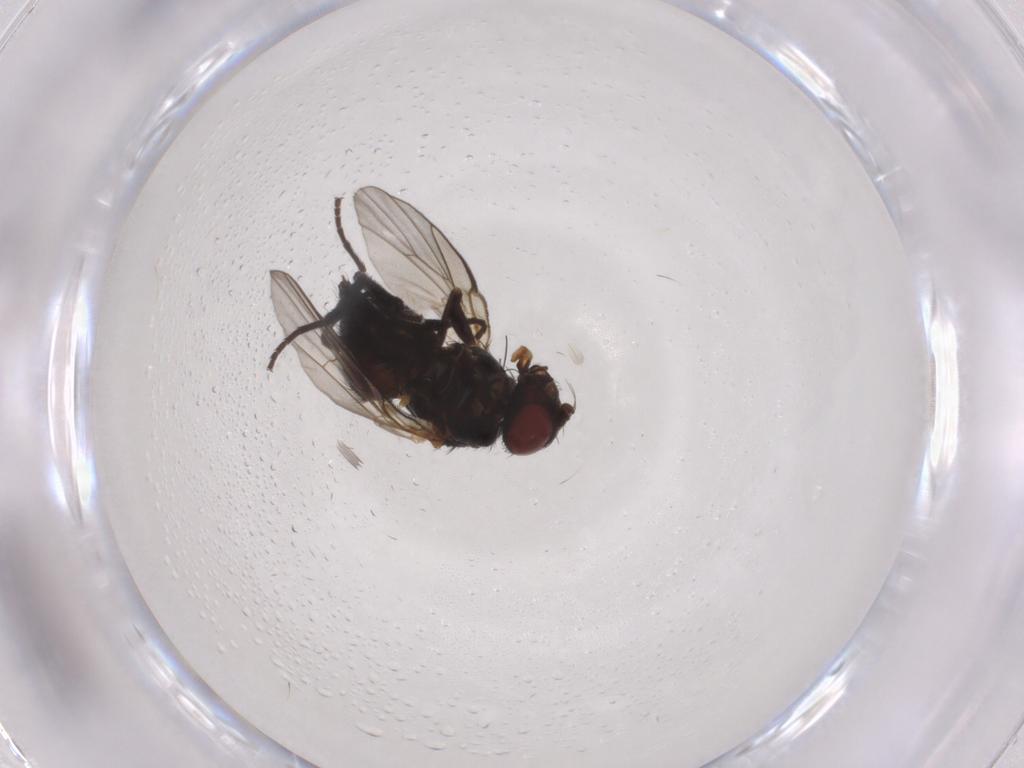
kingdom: Animalia
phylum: Arthropoda
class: Insecta
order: Diptera
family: Agromyzidae
